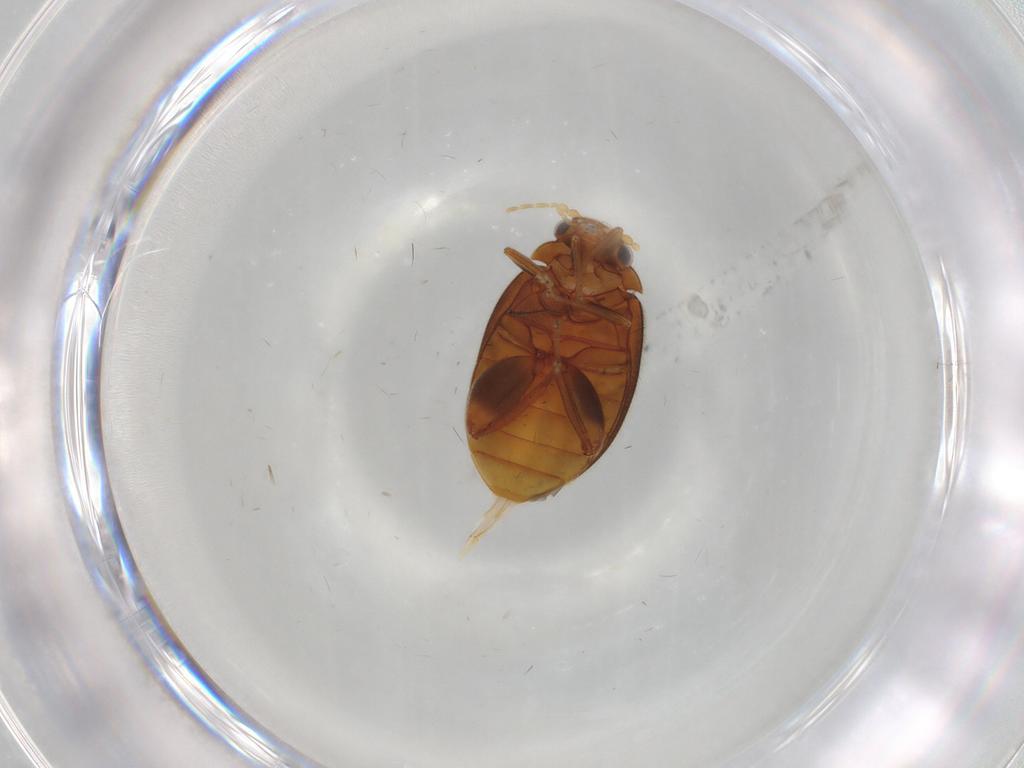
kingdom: Animalia
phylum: Arthropoda
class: Insecta
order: Coleoptera
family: Scirtidae
